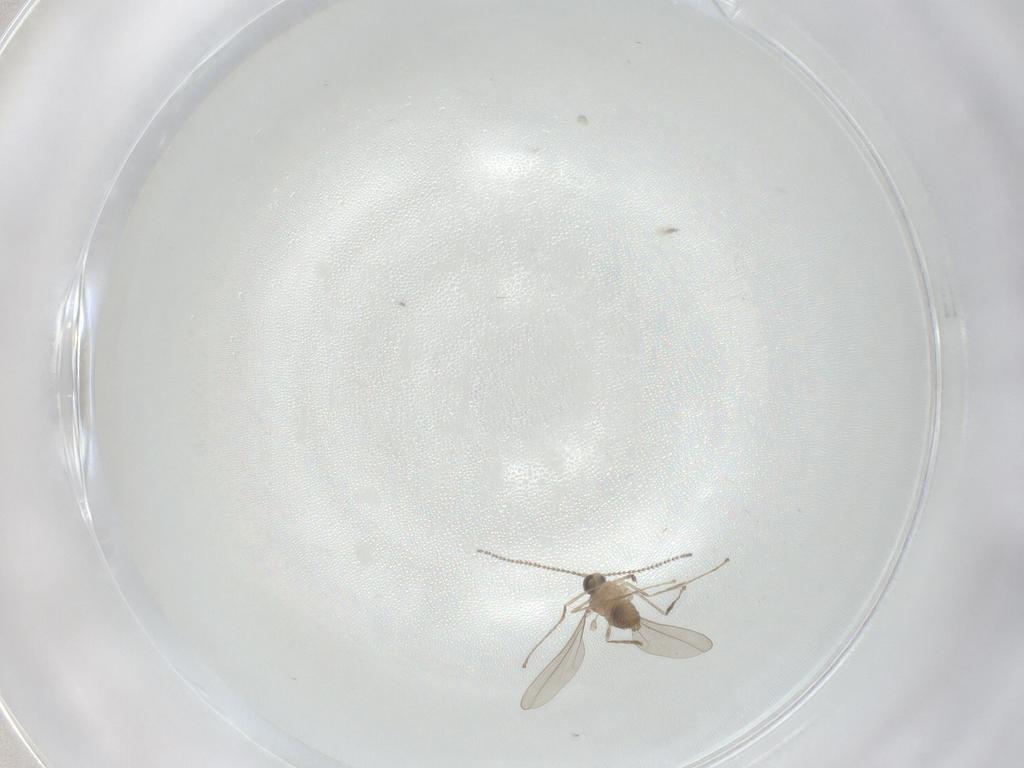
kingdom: Animalia
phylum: Arthropoda
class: Insecta
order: Diptera
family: Cecidomyiidae
